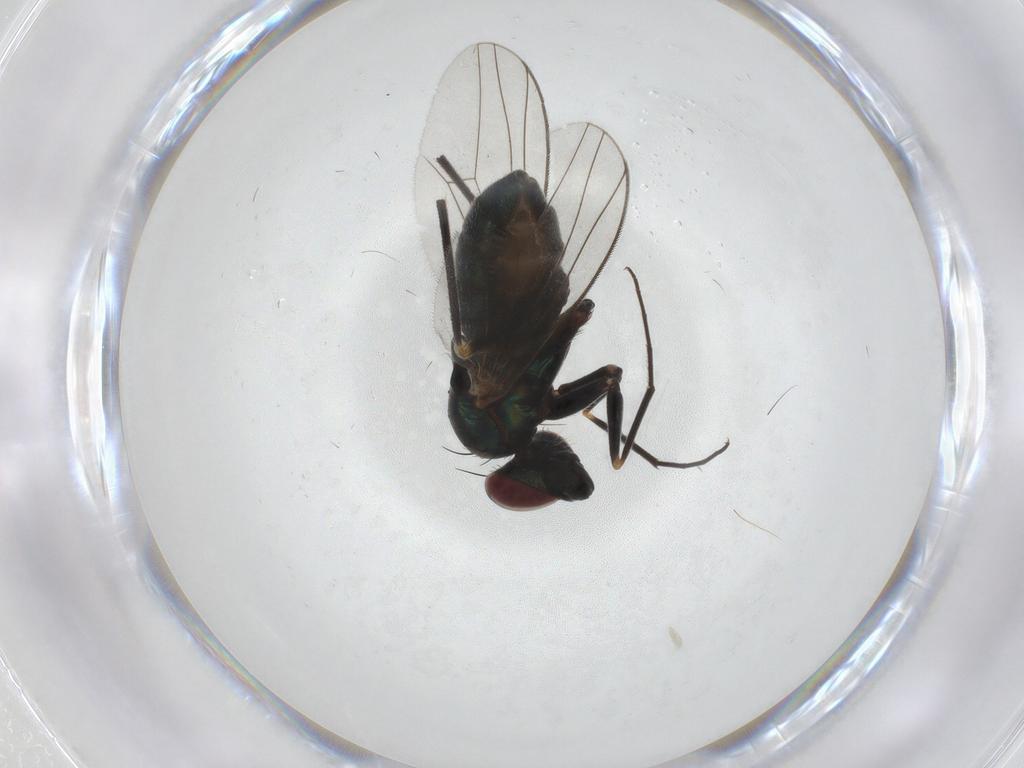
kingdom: Animalia
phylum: Arthropoda
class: Insecta
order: Diptera
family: Dolichopodidae
